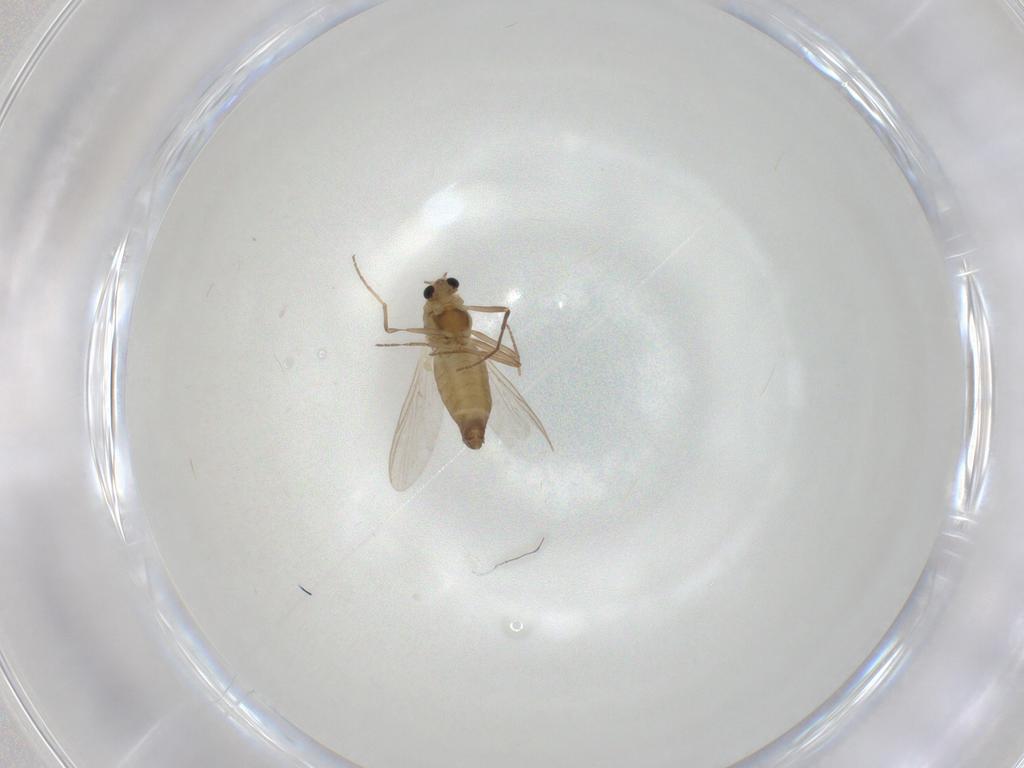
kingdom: Animalia
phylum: Arthropoda
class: Insecta
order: Diptera
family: Chironomidae
